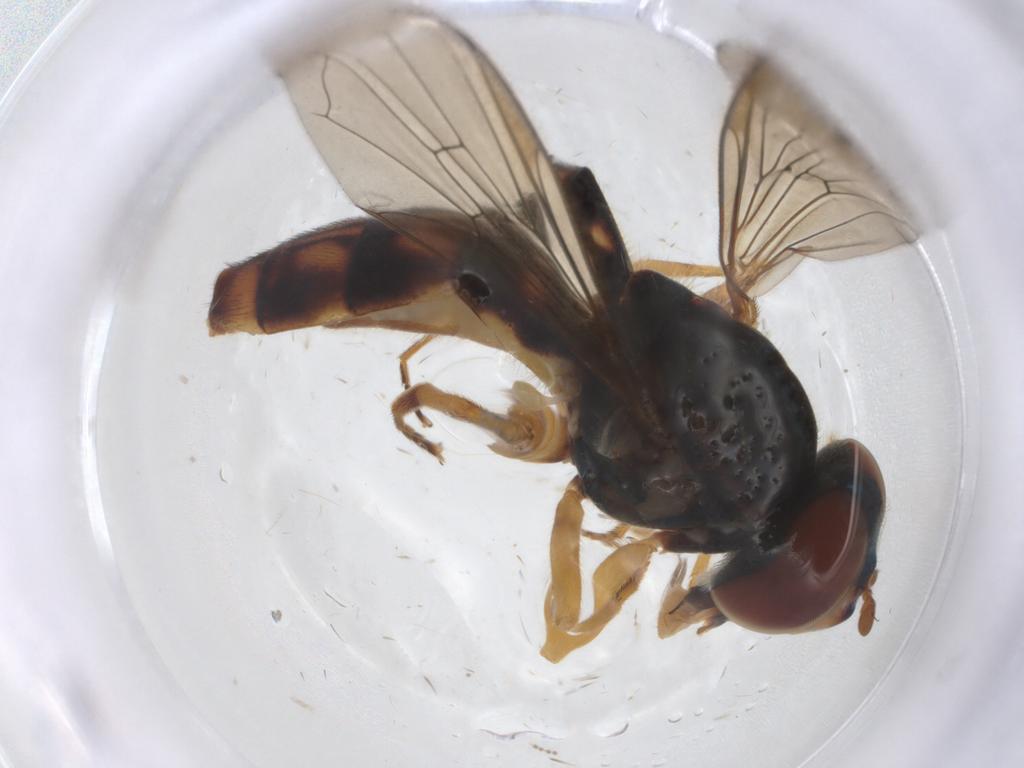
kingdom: Animalia
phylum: Arthropoda
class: Insecta
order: Diptera
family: Syrphidae
